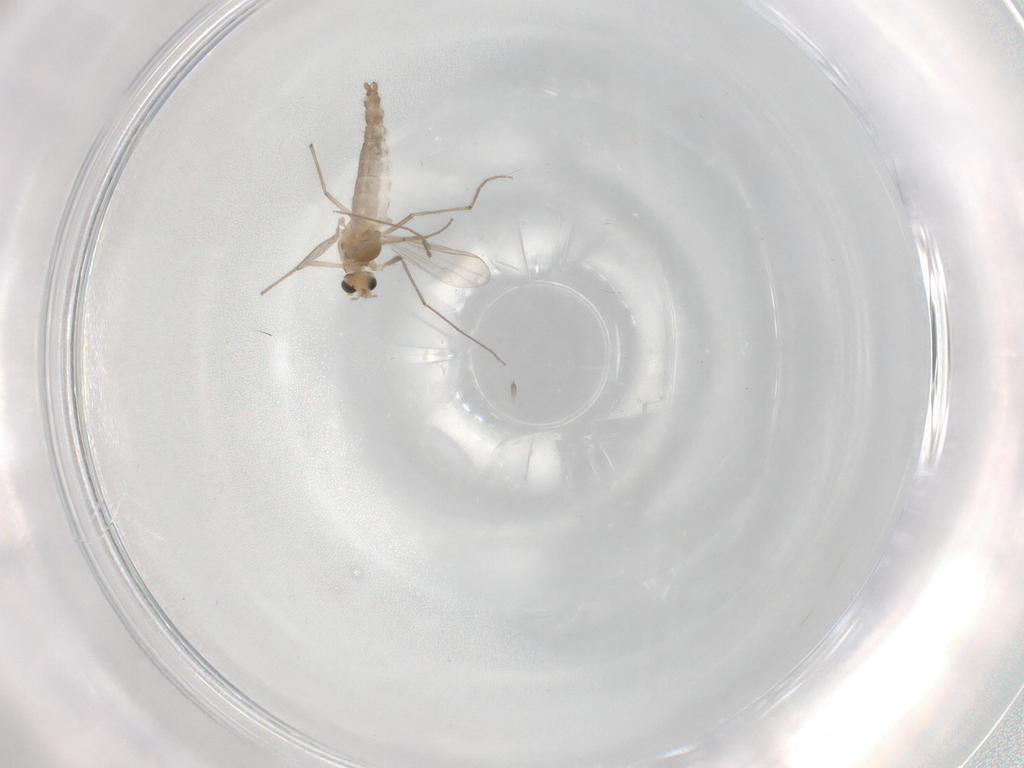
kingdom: Animalia
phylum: Arthropoda
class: Insecta
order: Diptera
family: Chironomidae
